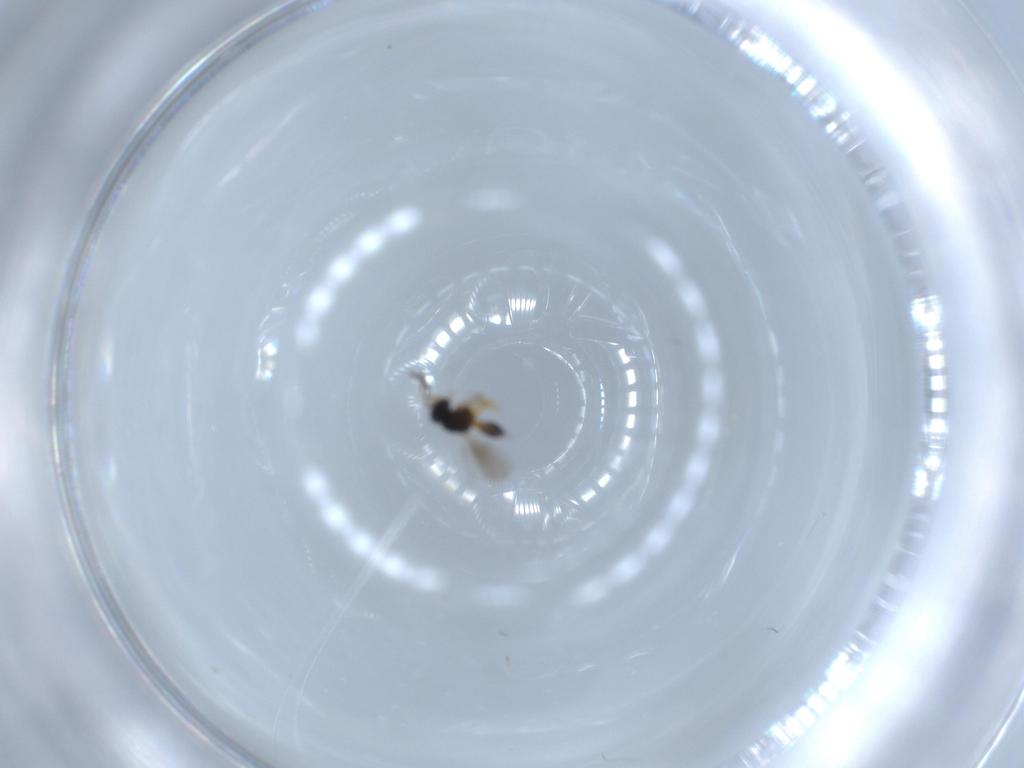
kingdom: Animalia
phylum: Arthropoda
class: Insecta
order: Hymenoptera
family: Scelionidae
